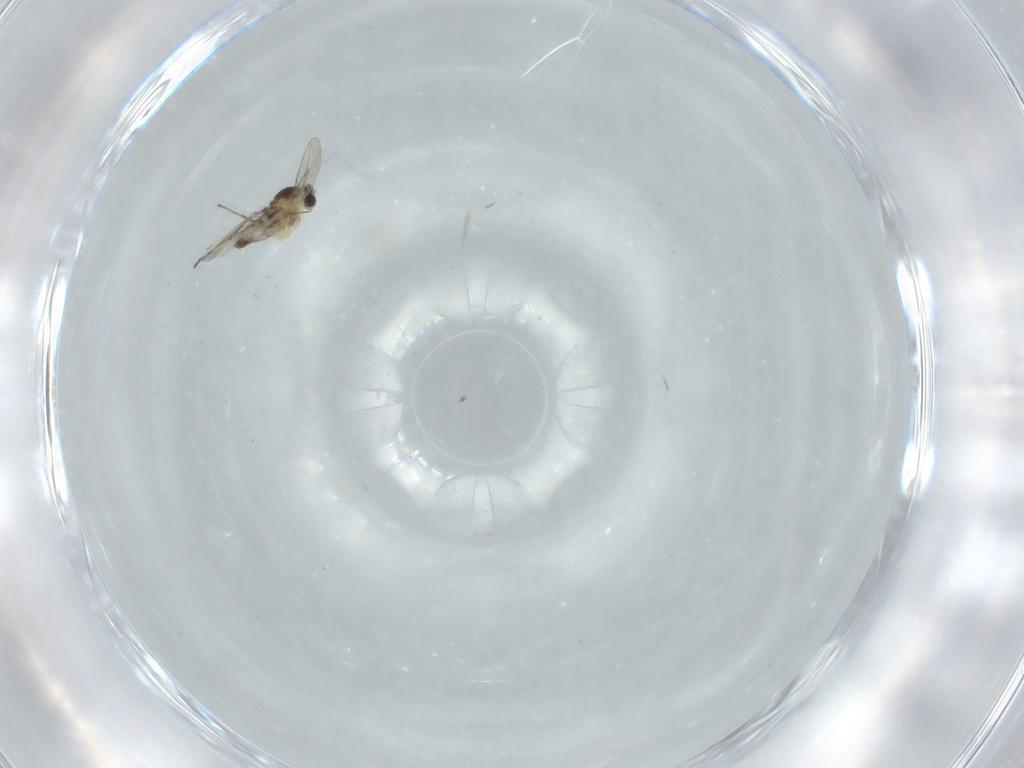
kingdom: Animalia
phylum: Arthropoda
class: Insecta
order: Diptera
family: Cecidomyiidae
